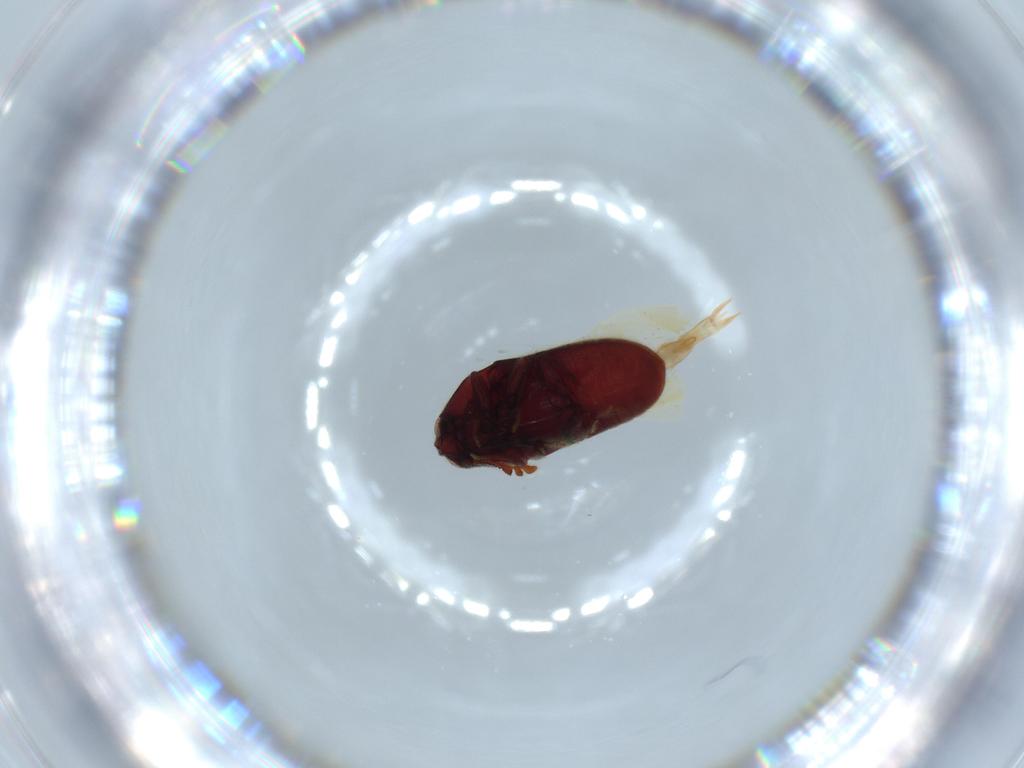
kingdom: Animalia
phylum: Arthropoda
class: Insecta
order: Coleoptera
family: Throscidae
